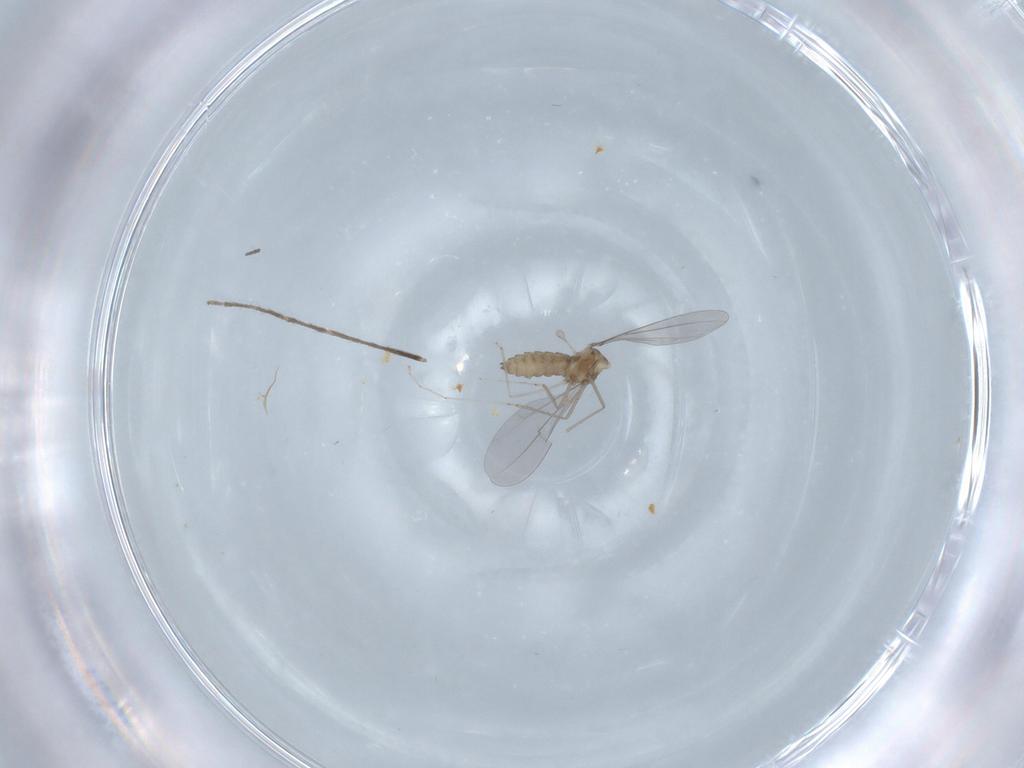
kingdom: Animalia
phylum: Arthropoda
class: Insecta
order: Diptera
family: Chironomidae
